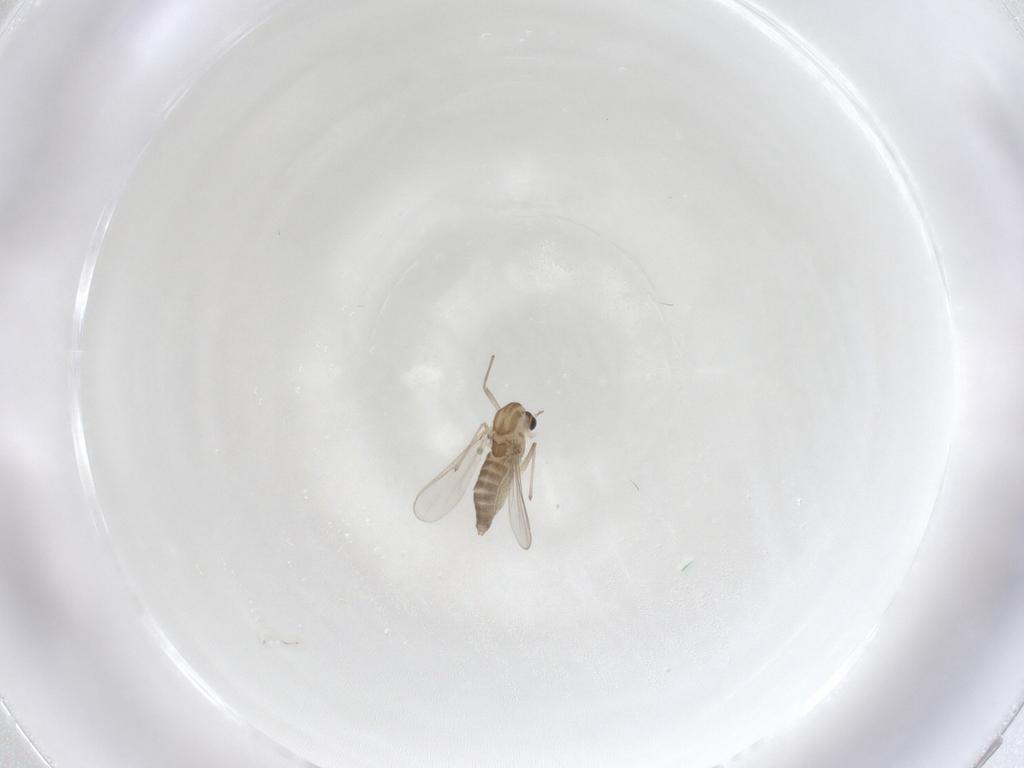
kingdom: Animalia
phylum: Arthropoda
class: Insecta
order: Diptera
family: Chironomidae
